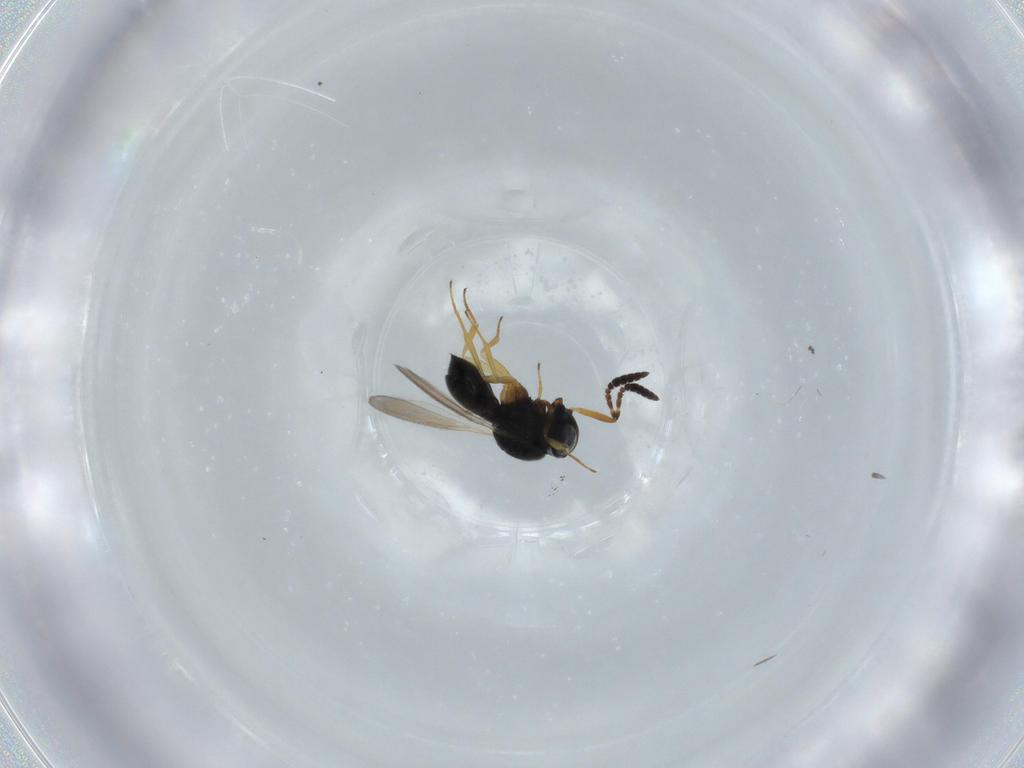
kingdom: Animalia
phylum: Arthropoda
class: Insecta
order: Hymenoptera
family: Scelionidae
